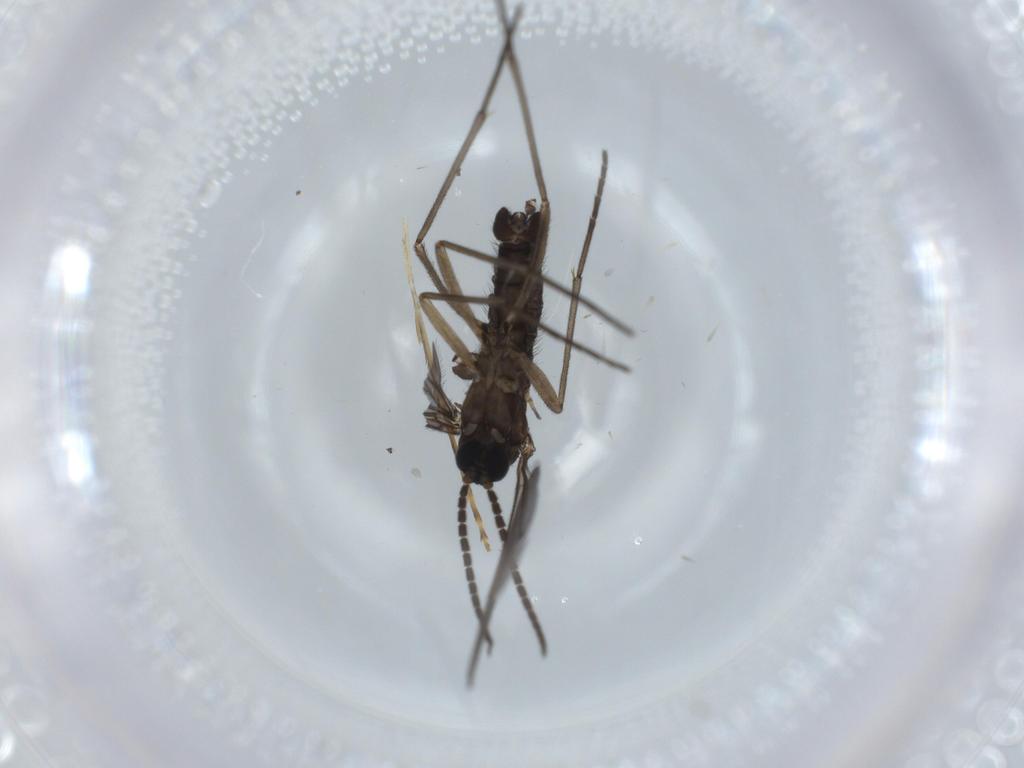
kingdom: Animalia
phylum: Arthropoda
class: Insecta
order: Diptera
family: Sciaridae
